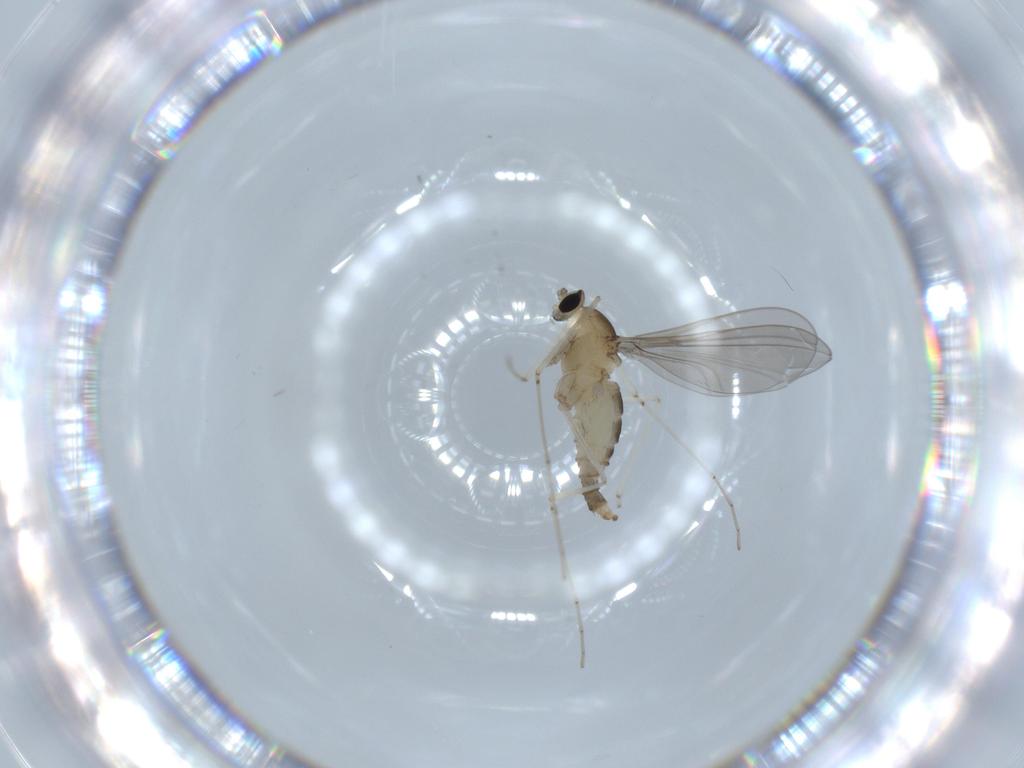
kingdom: Animalia
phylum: Arthropoda
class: Insecta
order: Diptera
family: Cecidomyiidae
